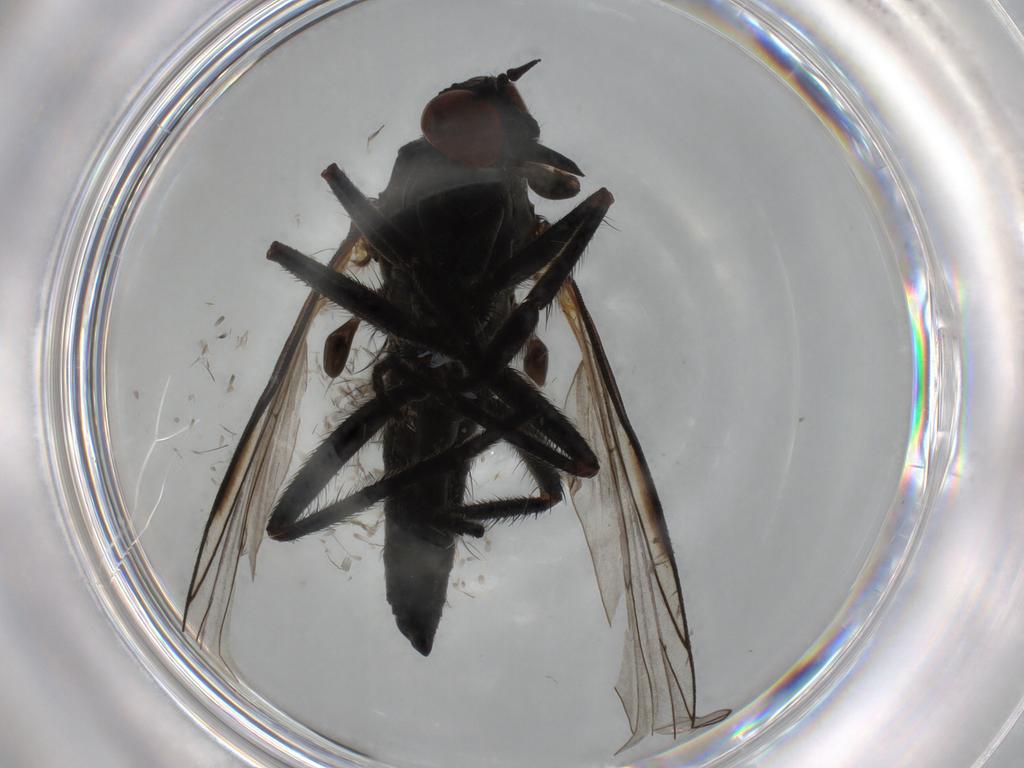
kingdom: Animalia
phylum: Arthropoda
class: Insecta
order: Diptera
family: Empididae
